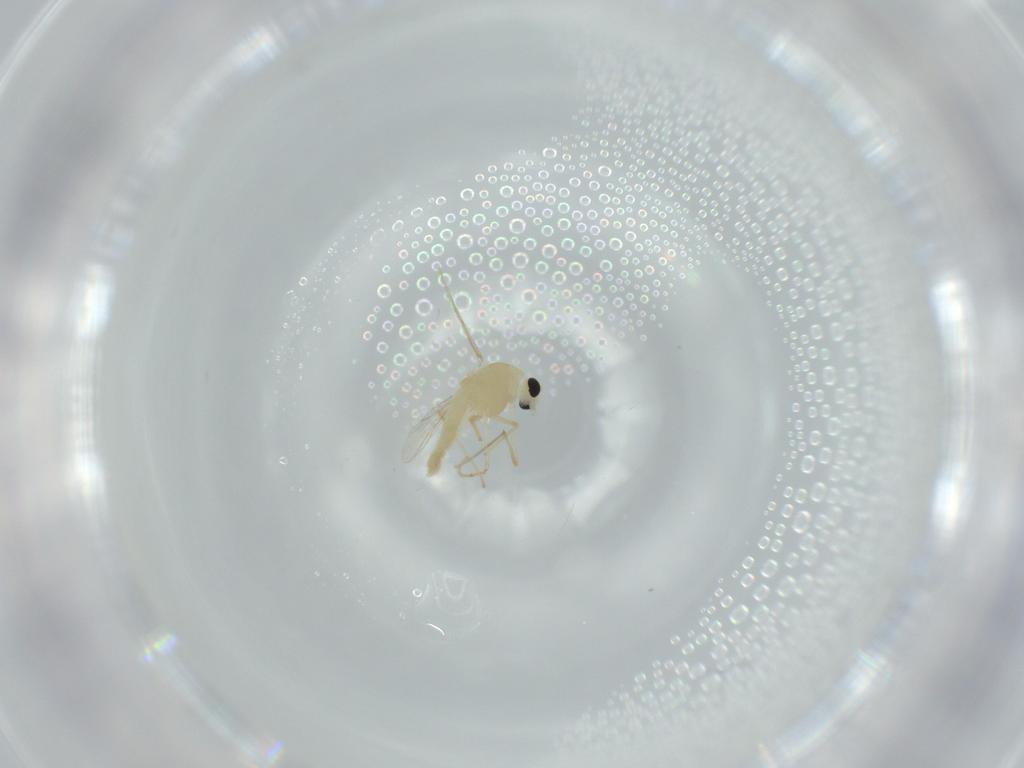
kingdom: Animalia
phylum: Arthropoda
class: Insecta
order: Diptera
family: Chironomidae
